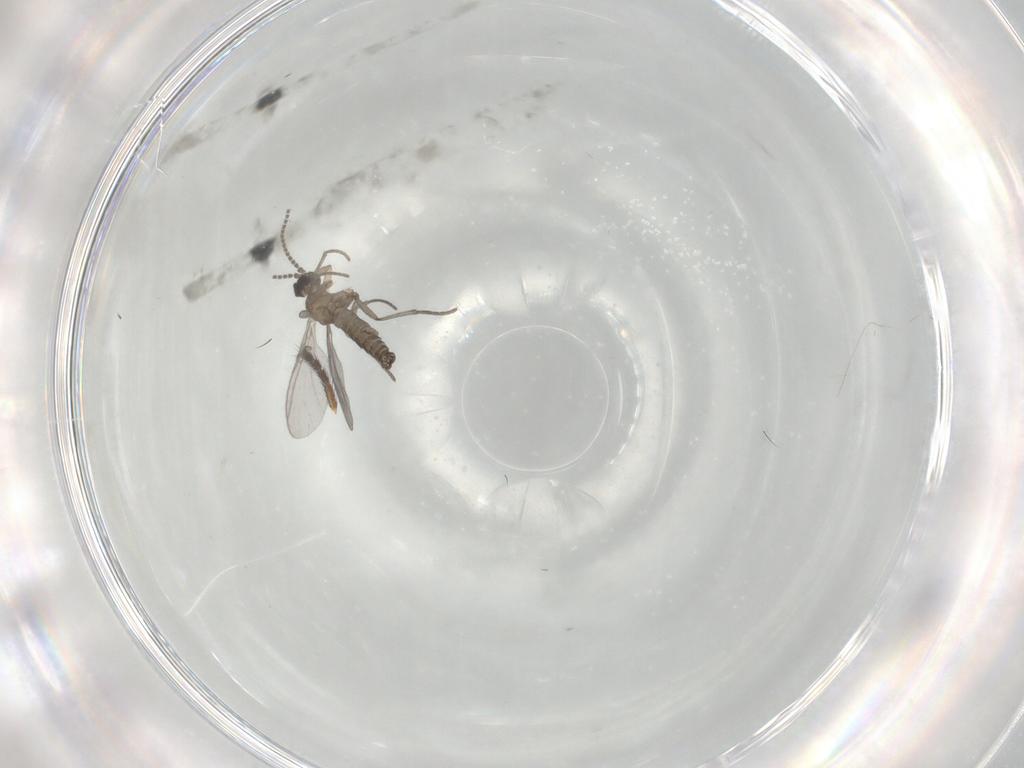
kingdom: Animalia
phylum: Arthropoda
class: Insecta
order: Diptera
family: Sciaridae
